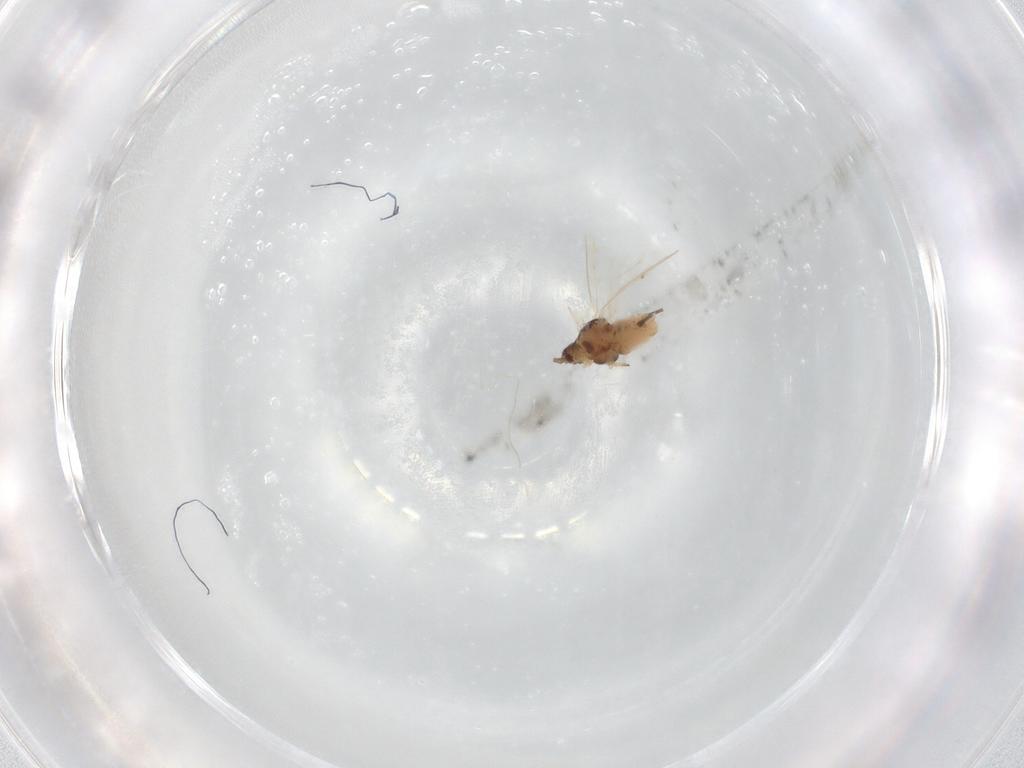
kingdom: Animalia
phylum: Arthropoda
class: Insecta
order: Hemiptera
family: Aphididae
